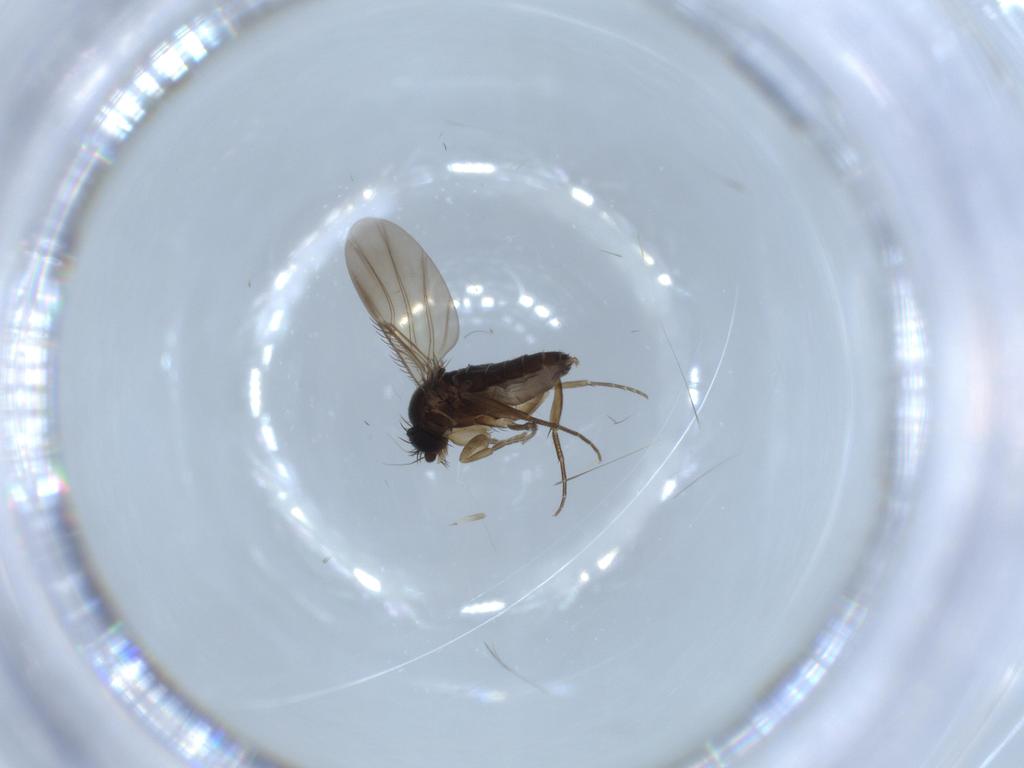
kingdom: Animalia
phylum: Arthropoda
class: Insecta
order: Diptera
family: Phoridae
